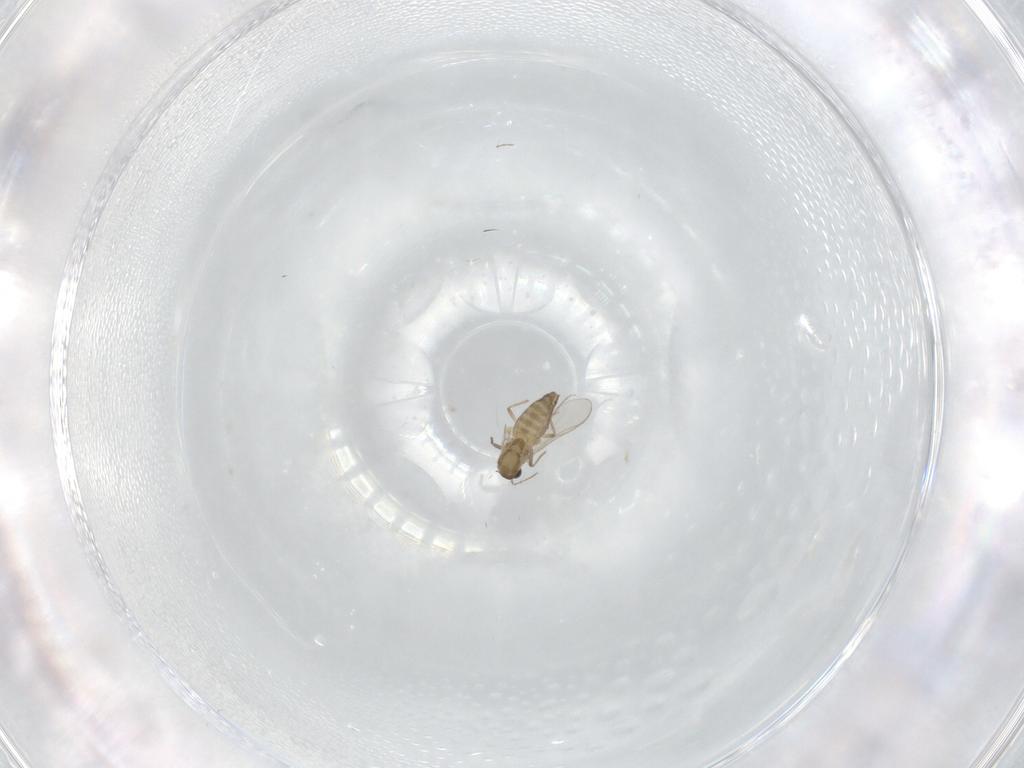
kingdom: Animalia
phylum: Arthropoda
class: Insecta
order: Diptera
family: Chironomidae
